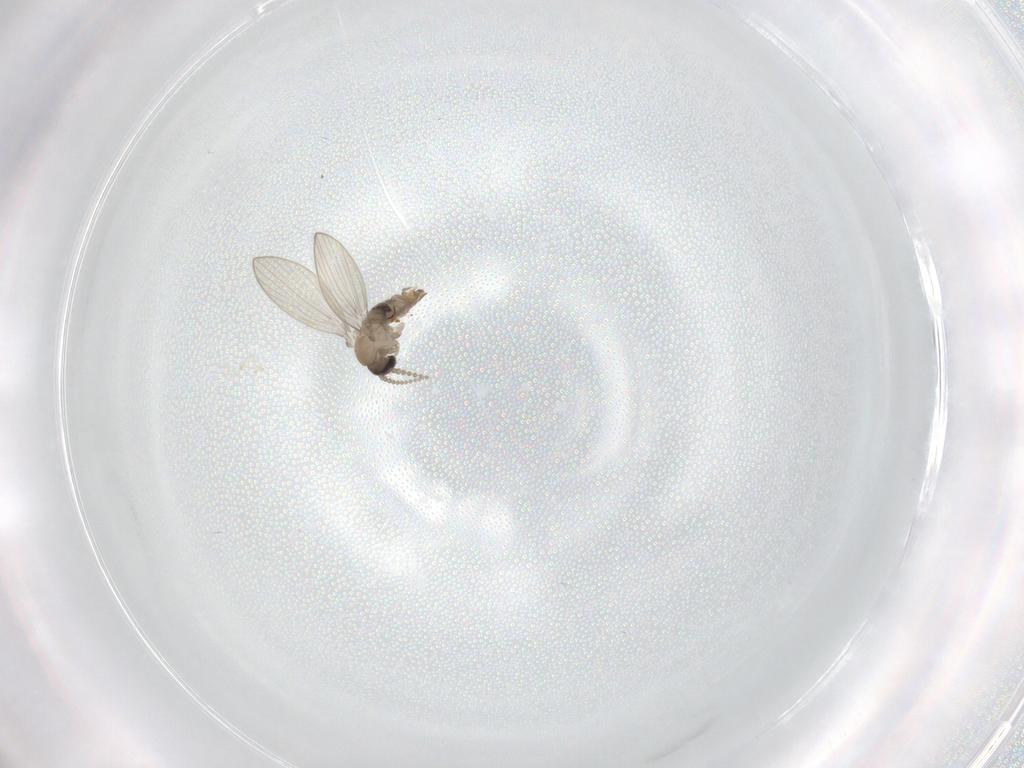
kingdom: Animalia
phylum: Arthropoda
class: Insecta
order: Diptera
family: Psychodidae
